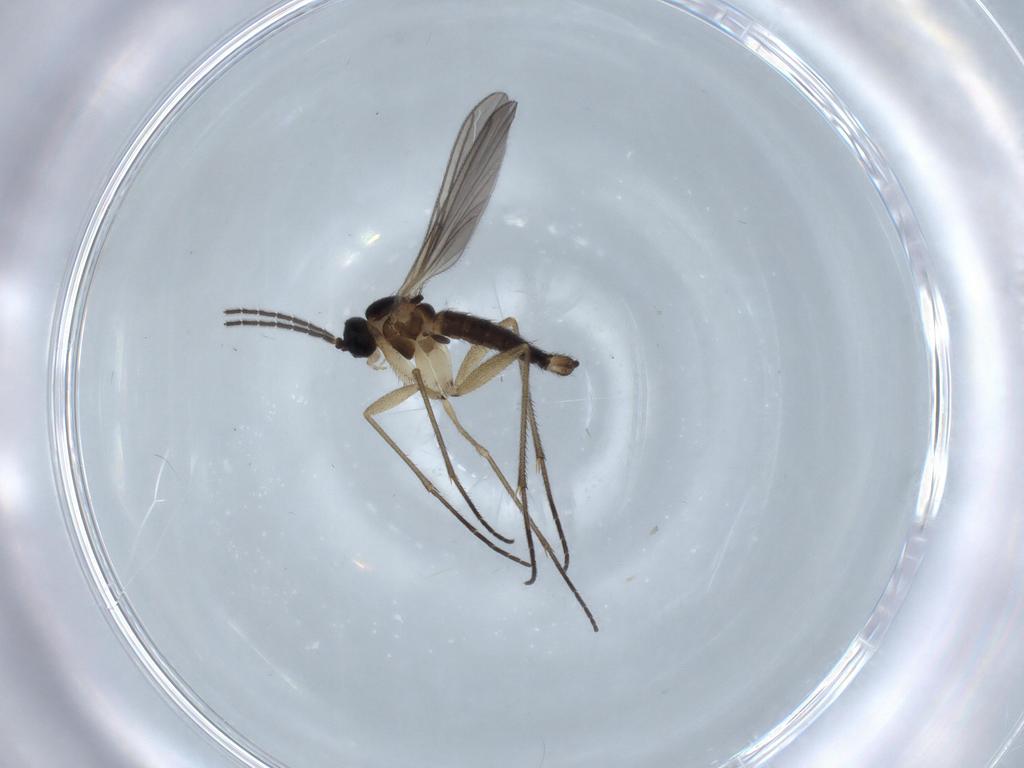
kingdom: Animalia
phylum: Arthropoda
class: Insecta
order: Diptera
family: Sciaridae
